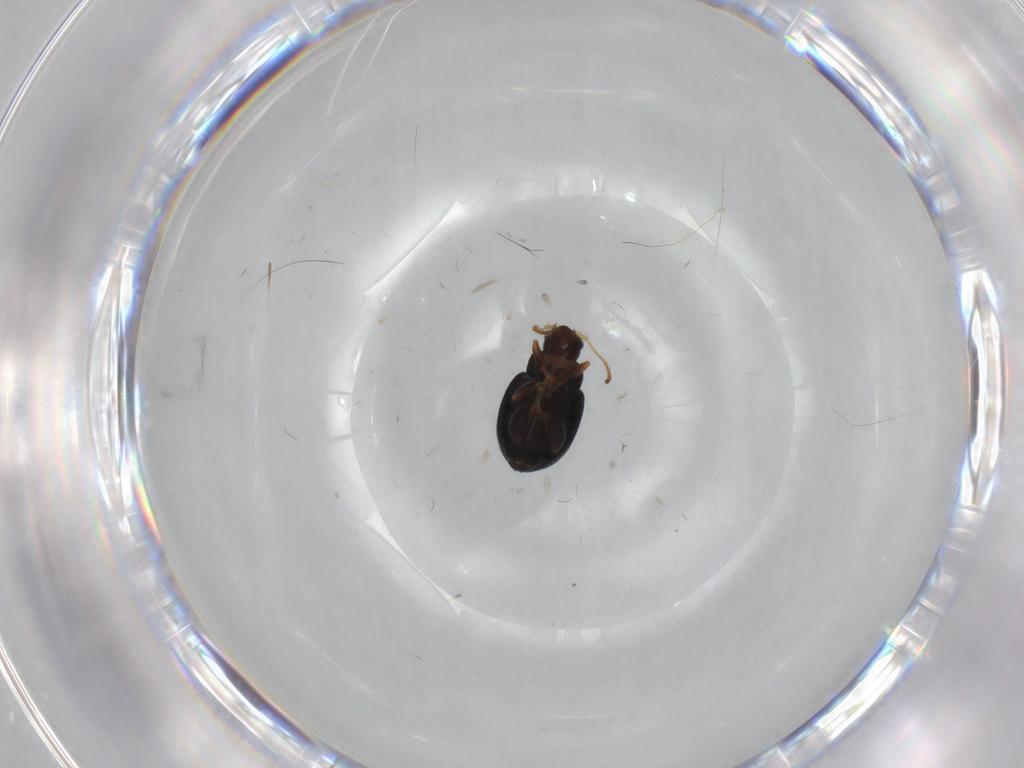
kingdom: Animalia
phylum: Arthropoda
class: Insecta
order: Coleoptera
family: Chrysomelidae
